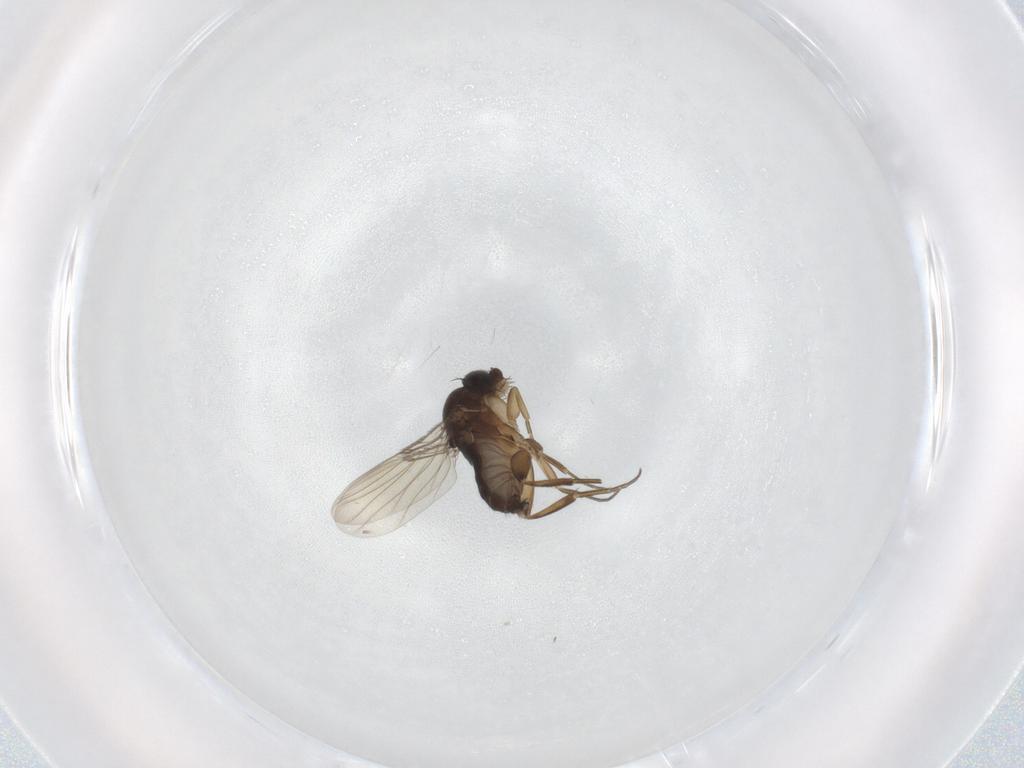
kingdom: Animalia
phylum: Arthropoda
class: Insecta
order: Diptera
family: Phoridae
